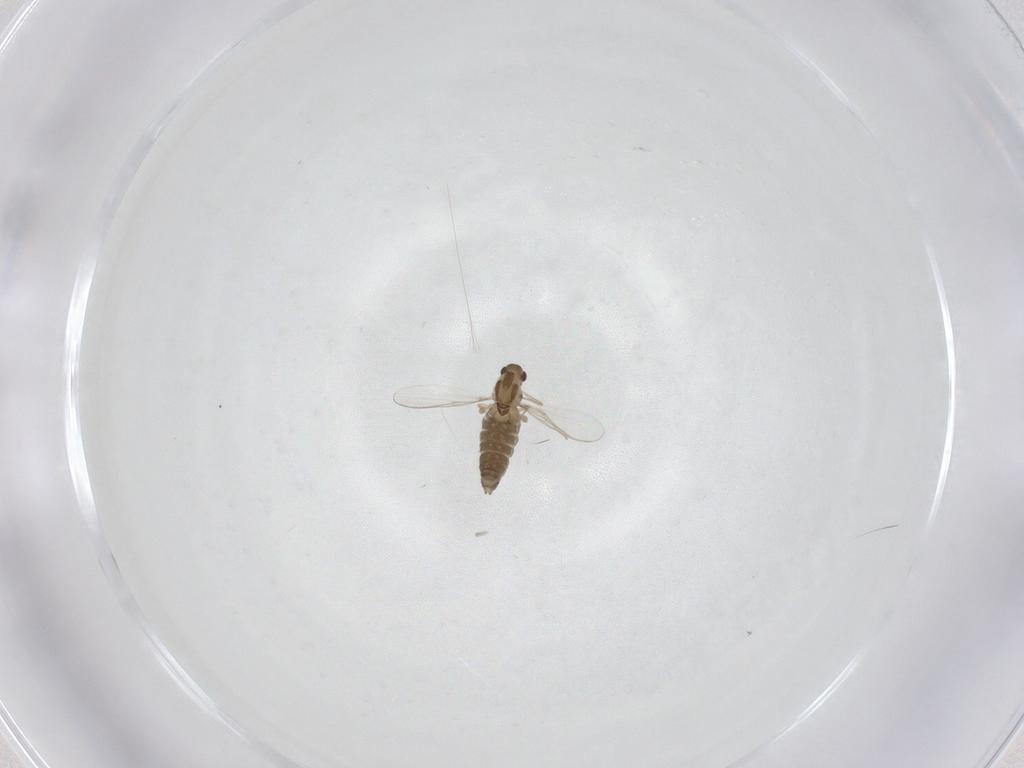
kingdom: Animalia
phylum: Arthropoda
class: Insecta
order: Diptera
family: Chironomidae
